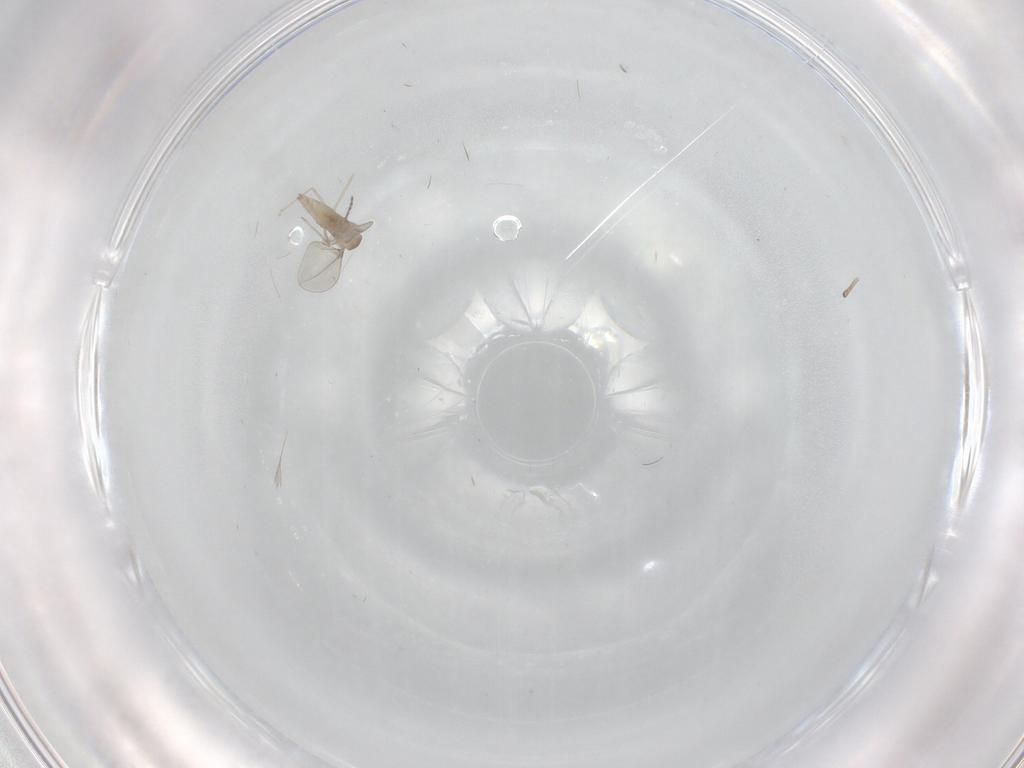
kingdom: Animalia
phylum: Arthropoda
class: Insecta
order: Diptera
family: Cecidomyiidae
